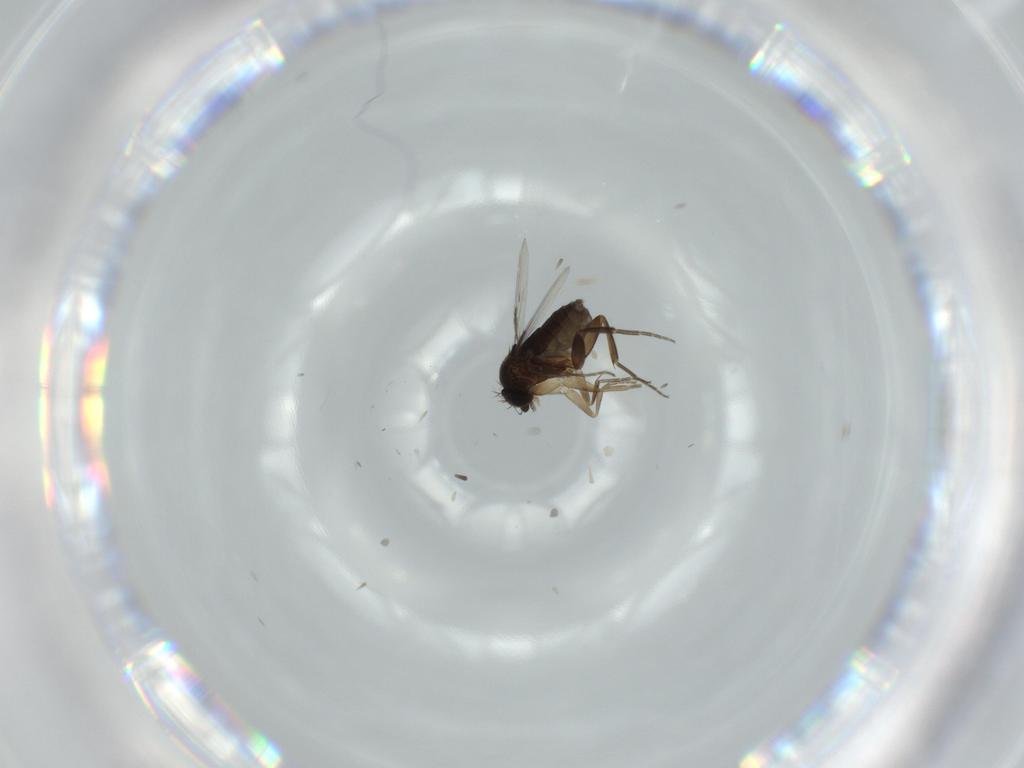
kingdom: Animalia
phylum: Arthropoda
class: Insecta
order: Diptera
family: Phoridae
